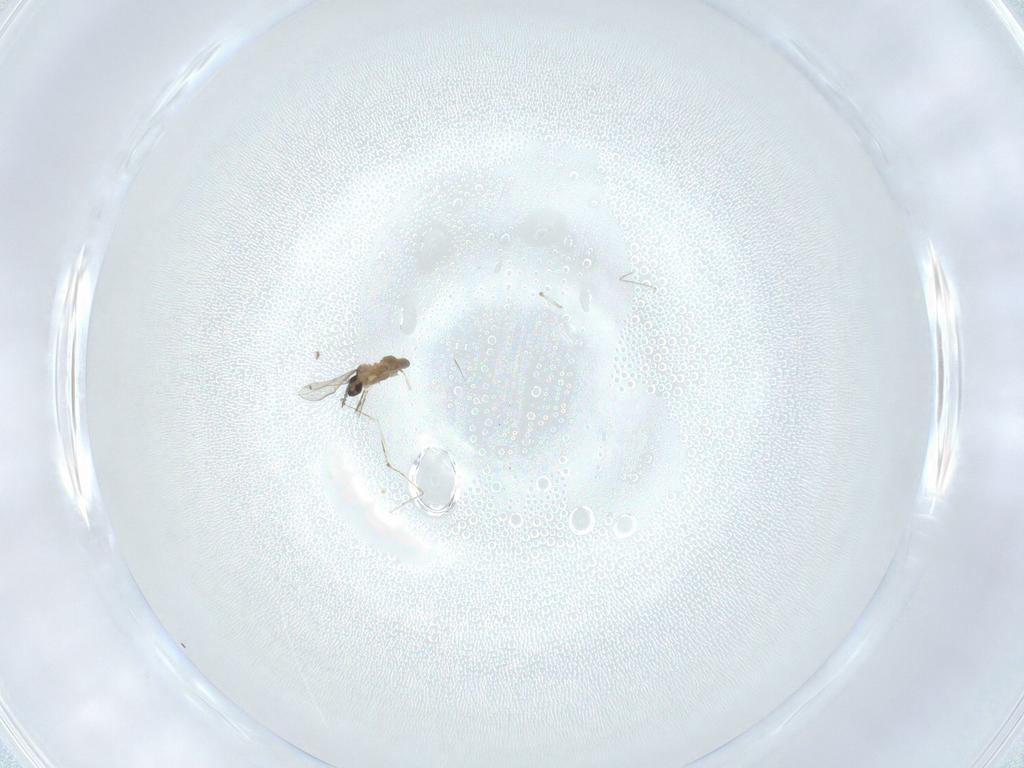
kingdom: Animalia
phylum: Arthropoda
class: Insecta
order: Diptera
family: Cecidomyiidae
